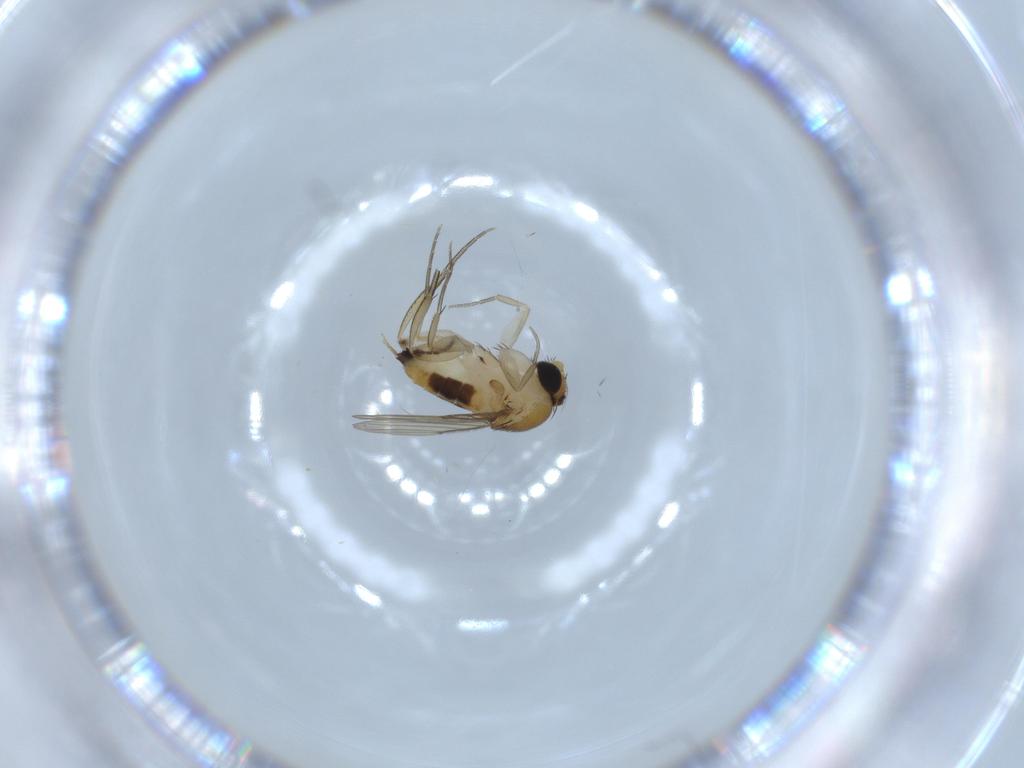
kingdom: Animalia
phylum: Arthropoda
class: Insecta
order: Diptera
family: Phoridae
